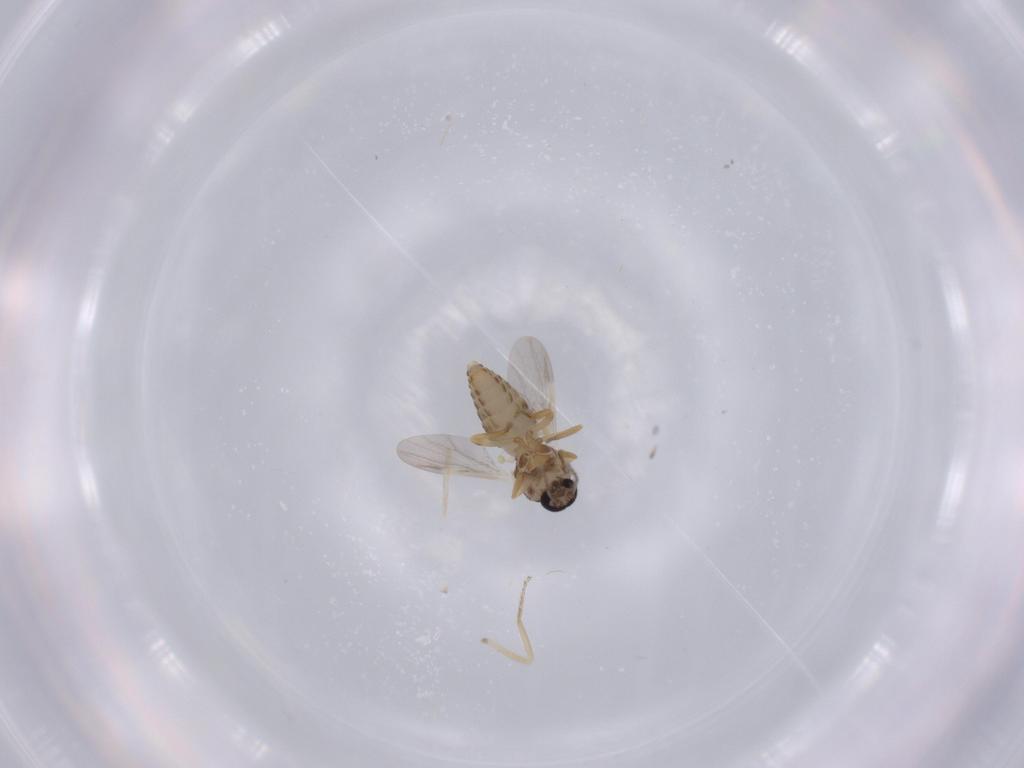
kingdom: Animalia
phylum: Arthropoda
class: Insecta
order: Diptera
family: Ceratopogonidae
